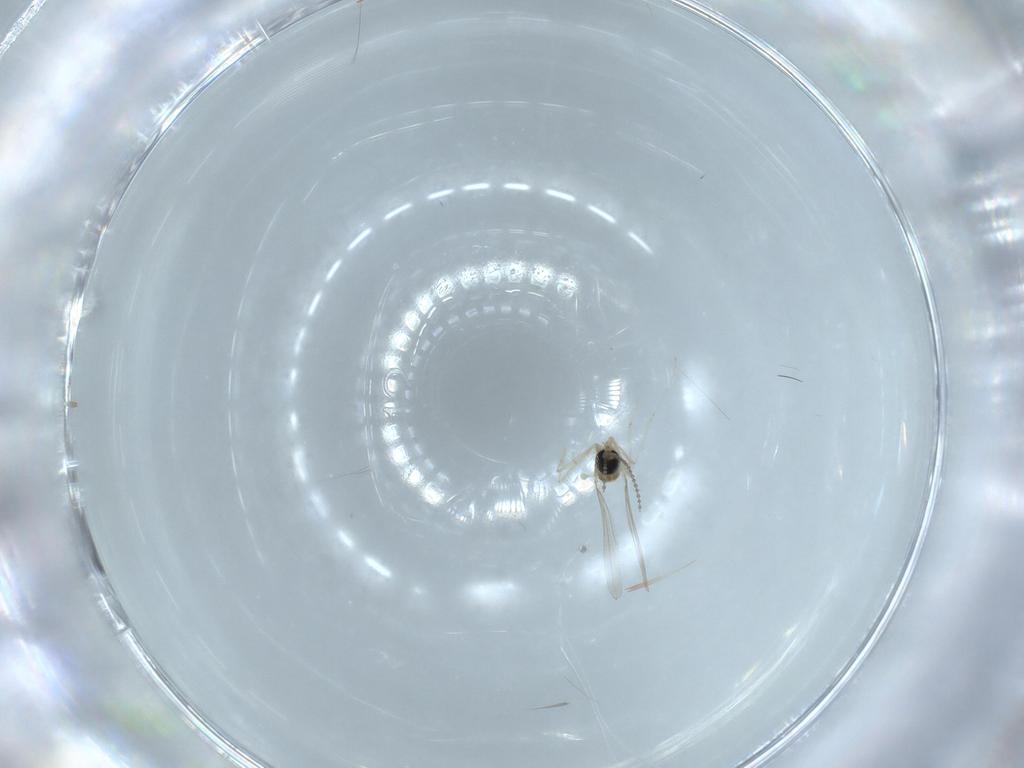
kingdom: Animalia
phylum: Arthropoda
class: Insecta
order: Diptera
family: Cecidomyiidae
